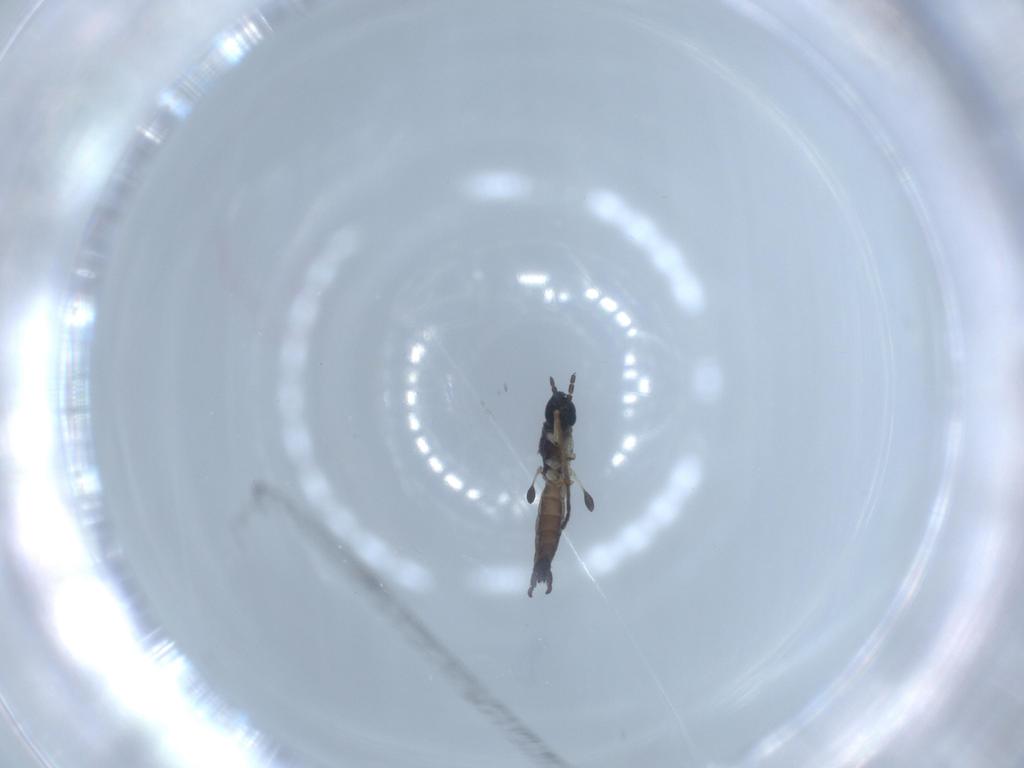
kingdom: Animalia
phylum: Arthropoda
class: Insecta
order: Diptera
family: Sciaridae
